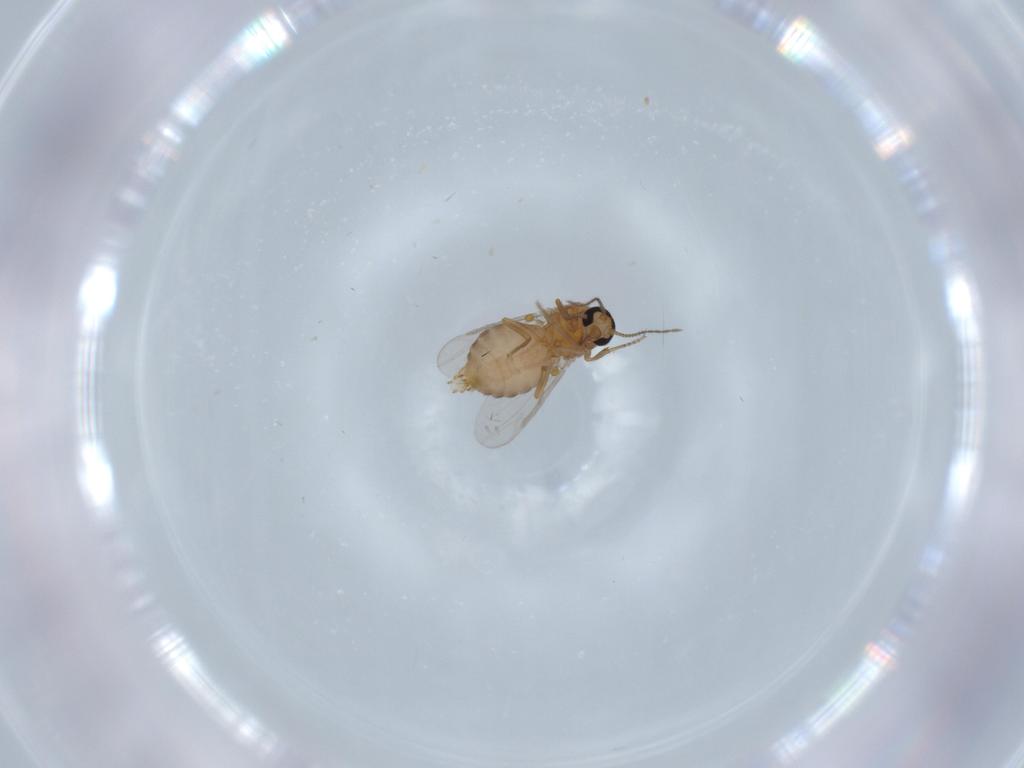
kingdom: Animalia
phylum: Arthropoda
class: Insecta
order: Diptera
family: Ceratopogonidae
